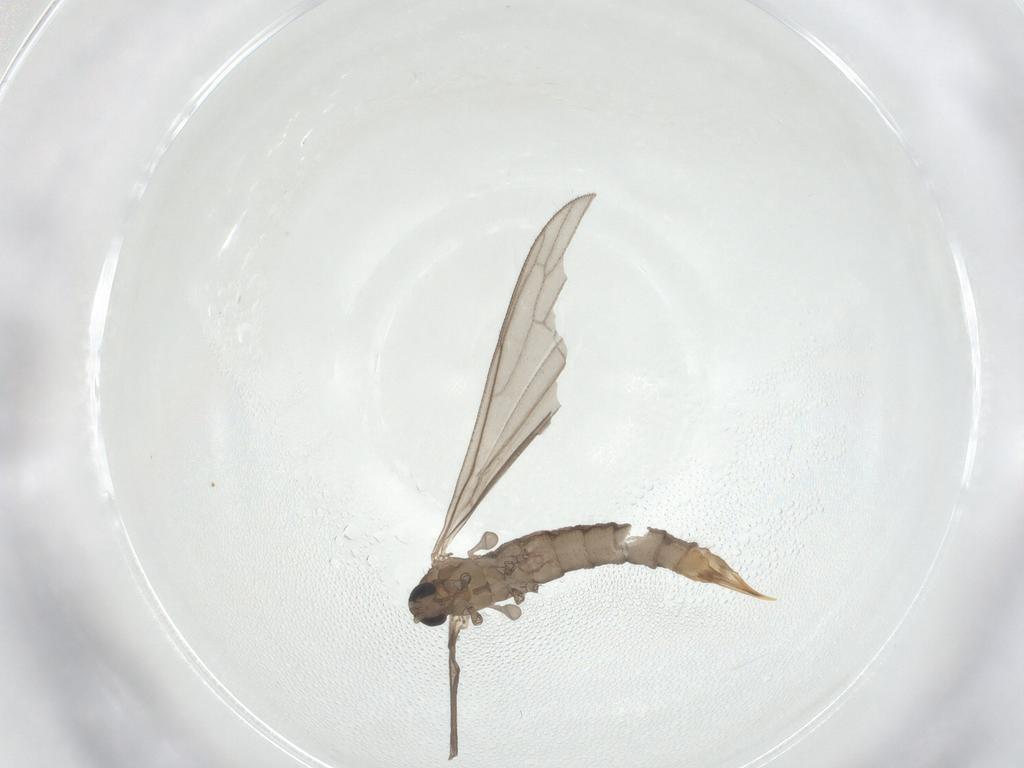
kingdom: Animalia
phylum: Arthropoda
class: Insecta
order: Diptera
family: Limoniidae
